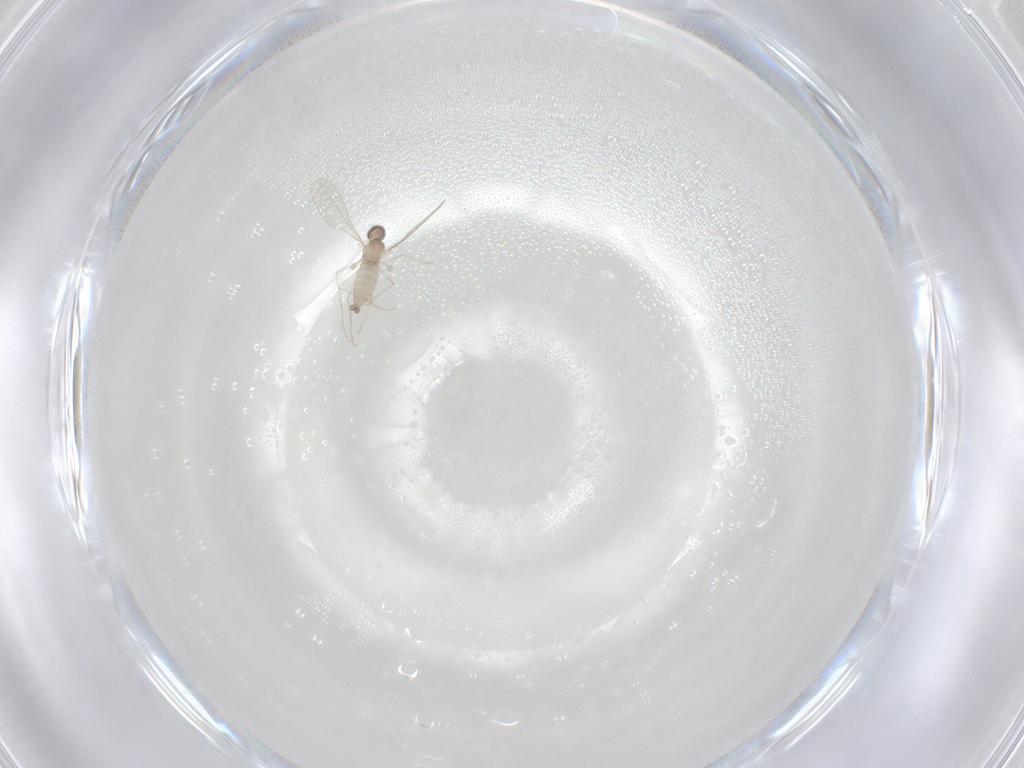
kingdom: Animalia
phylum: Arthropoda
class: Insecta
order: Diptera
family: Cecidomyiidae
